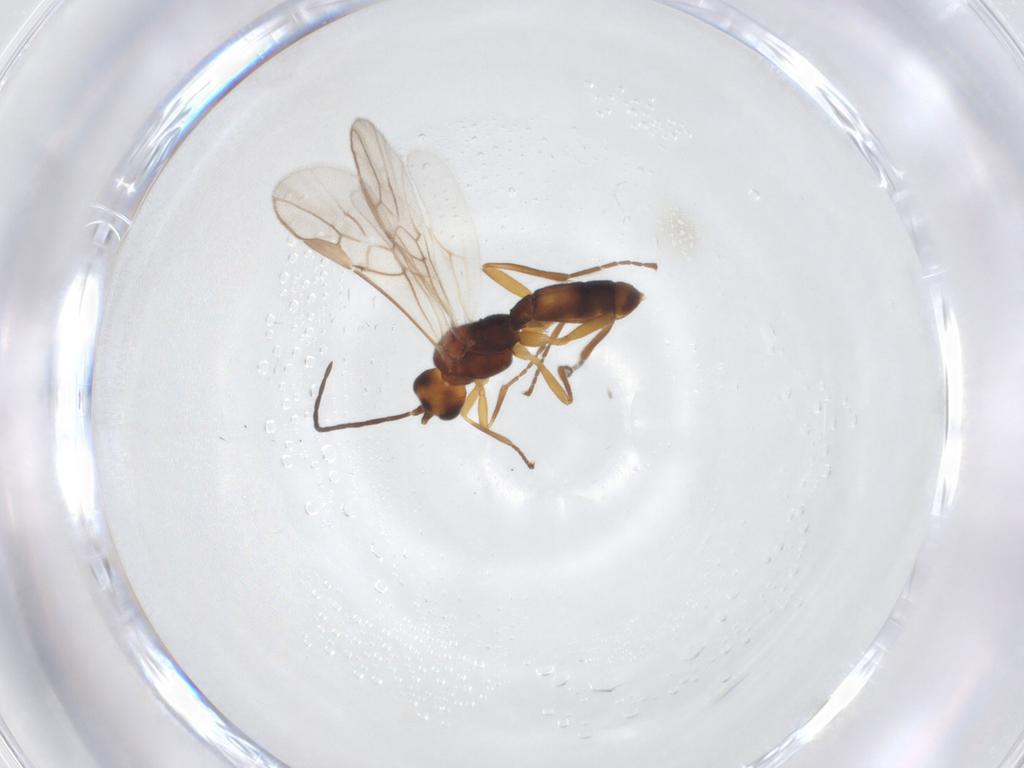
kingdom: Animalia
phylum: Arthropoda
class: Insecta
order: Hymenoptera
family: Braconidae
